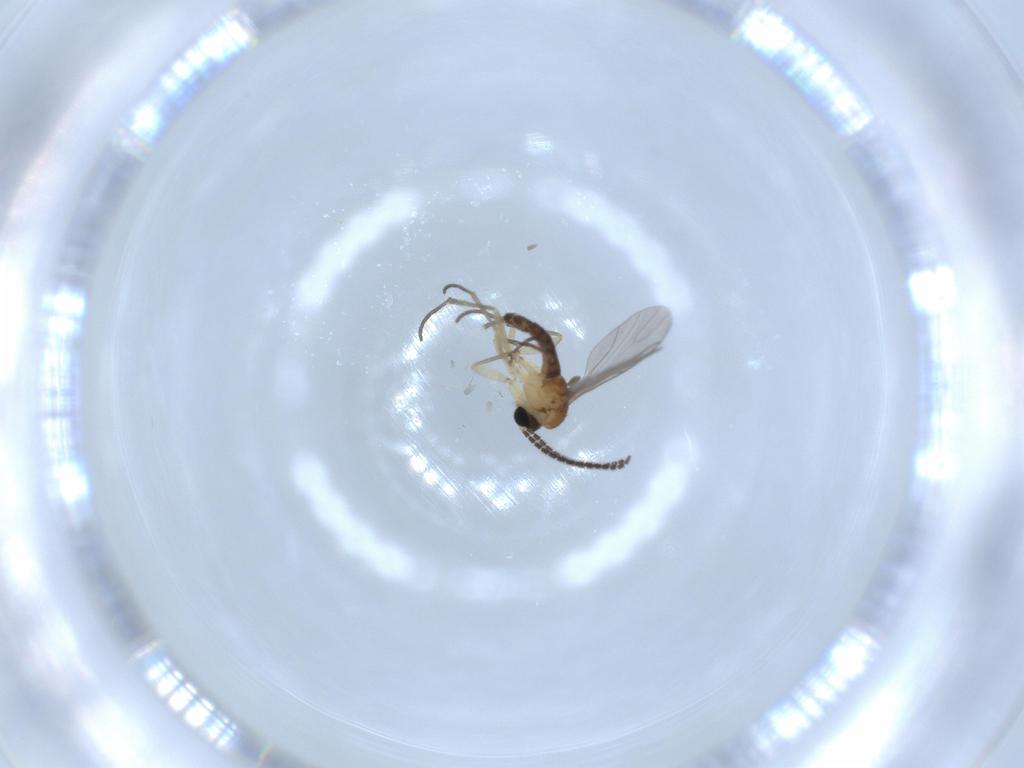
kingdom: Animalia
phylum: Arthropoda
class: Insecta
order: Diptera
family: Sciaridae
